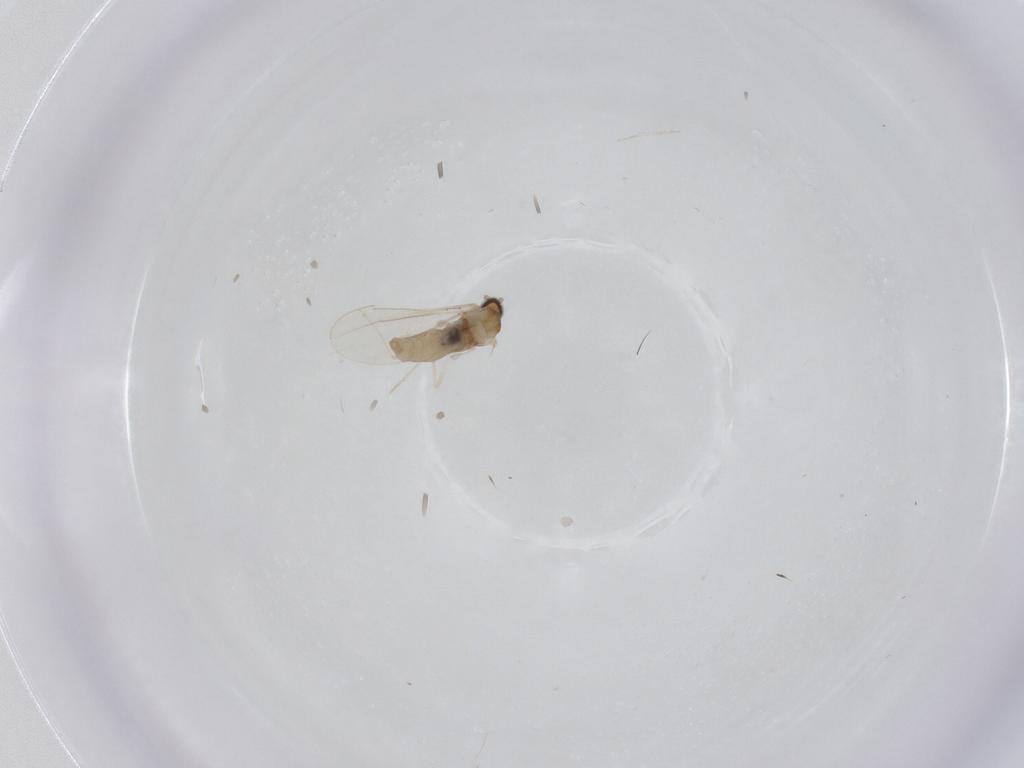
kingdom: Animalia
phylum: Arthropoda
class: Insecta
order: Diptera
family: Cecidomyiidae
